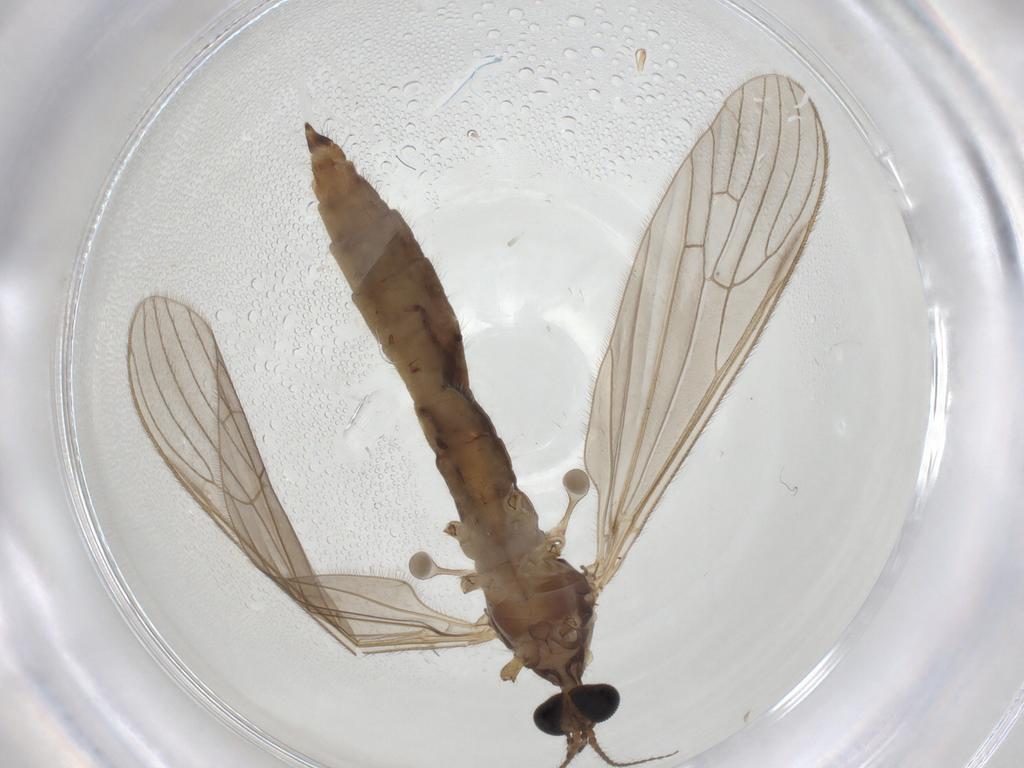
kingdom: Animalia
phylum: Arthropoda
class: Insecta
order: Diptera
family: Limoniidae
